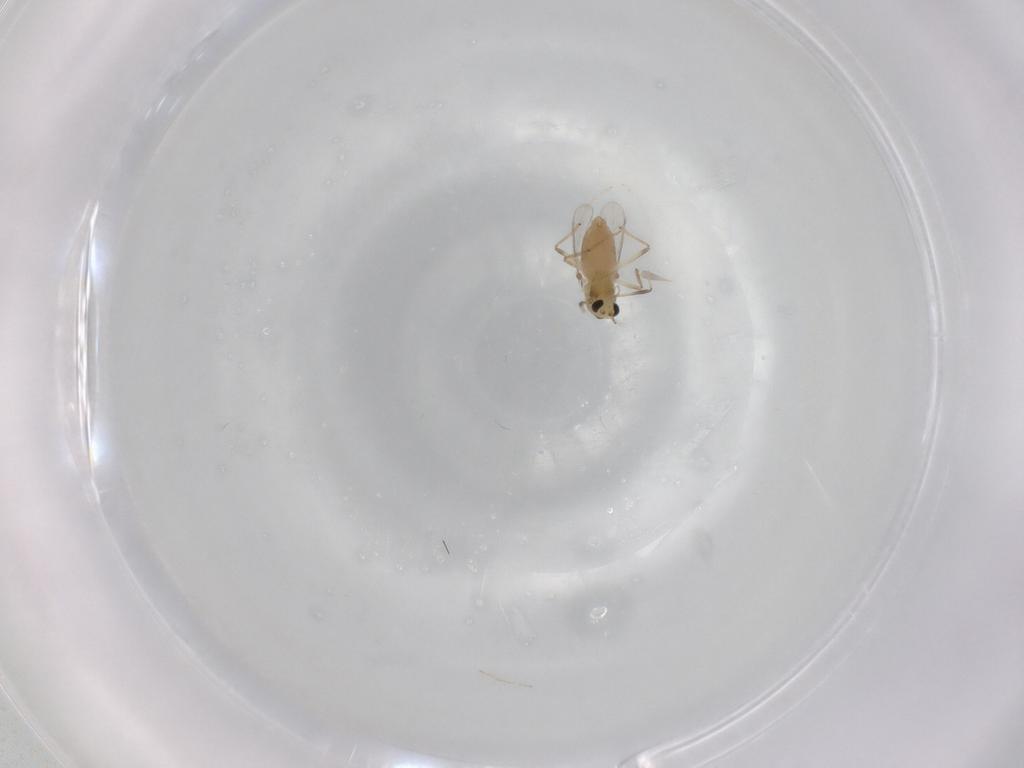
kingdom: Animalia
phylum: Arthropoda
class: Insecta
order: Diptera
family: Chironomidae
